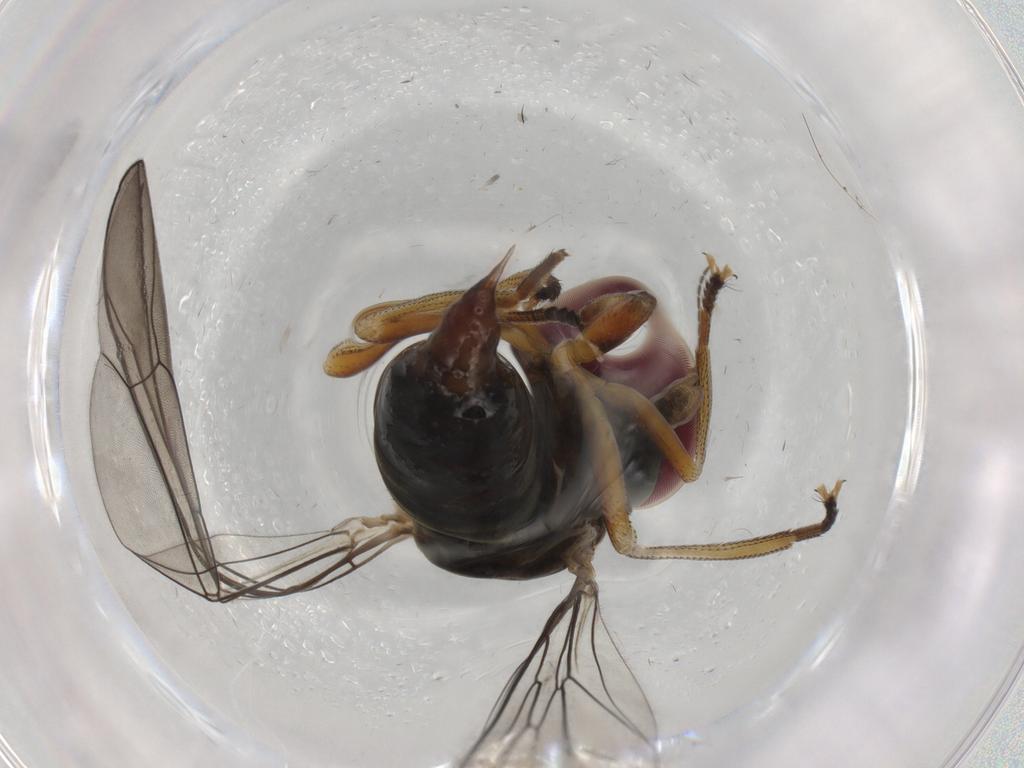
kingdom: Animalia
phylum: Arthropoda
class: Insecta
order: Diptera
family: Pipunculidae
